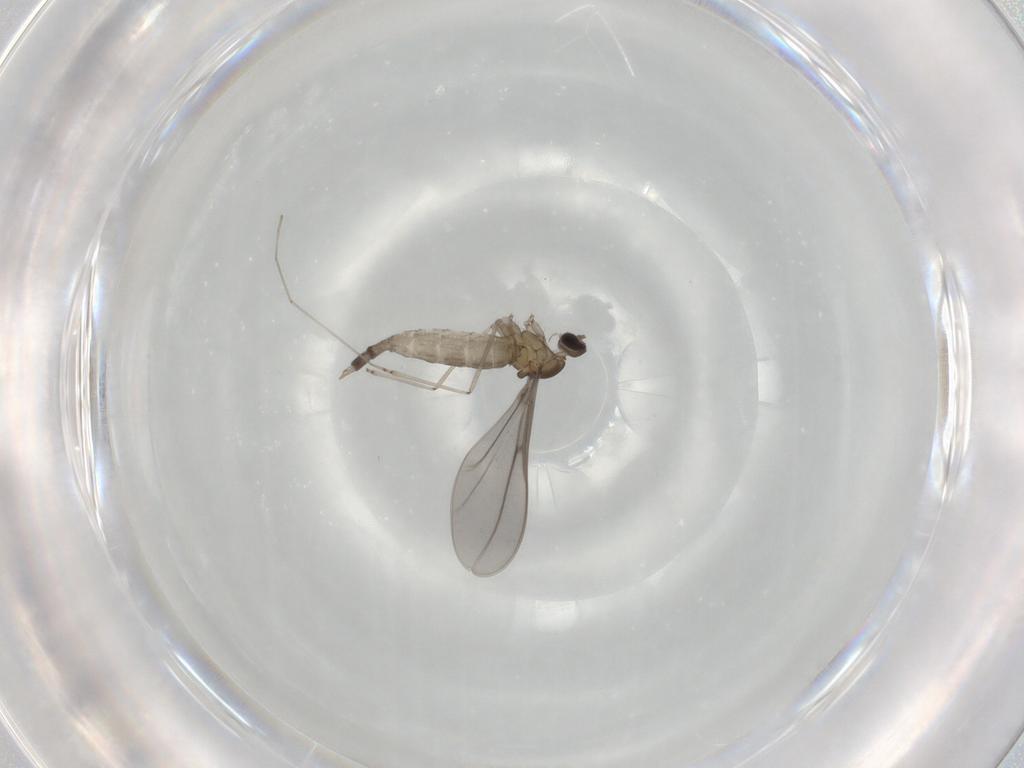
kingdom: Animalia
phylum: Arthropoda
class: Insecta
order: Diptera
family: Cecidomyiidae
